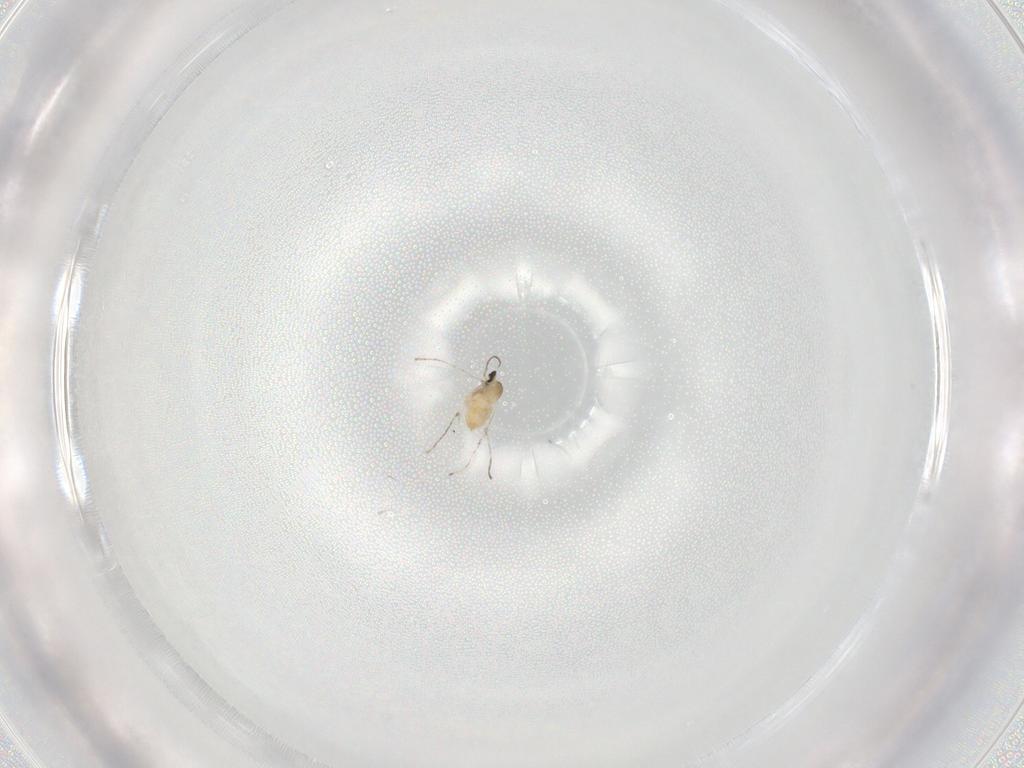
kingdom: Animalia
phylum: Arthropoda
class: Insecta
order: Diptera
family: Cecidomyiidae
